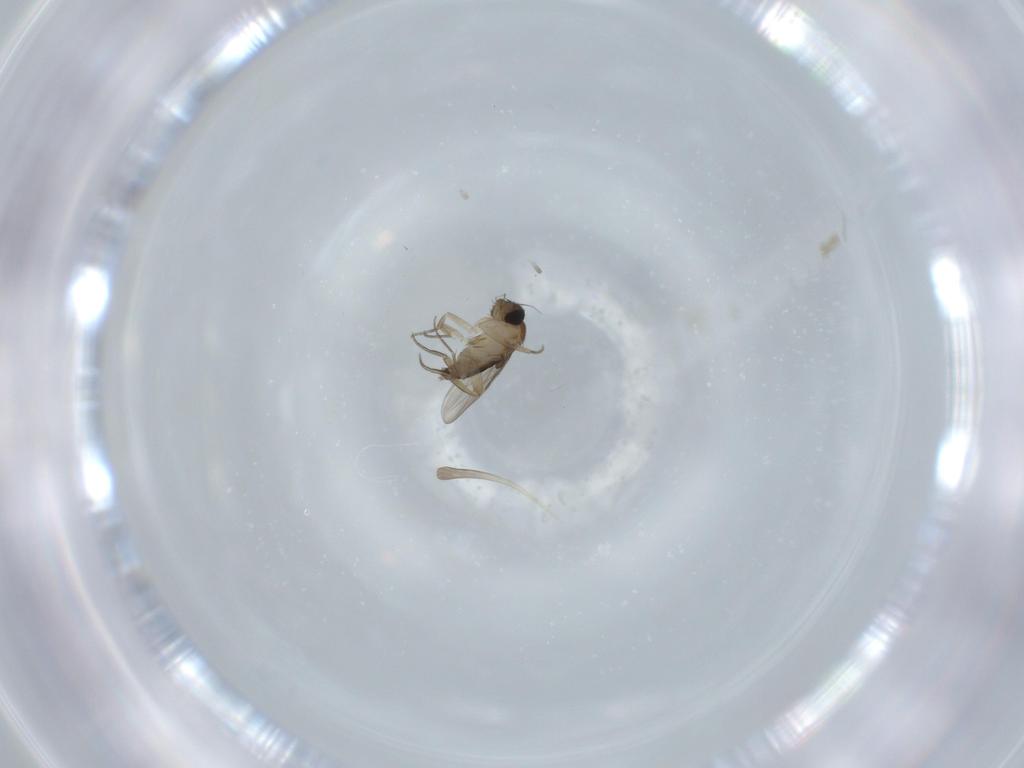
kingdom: Animalia
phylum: Arthropoda
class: Insecta
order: Diptera
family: Phoridae
